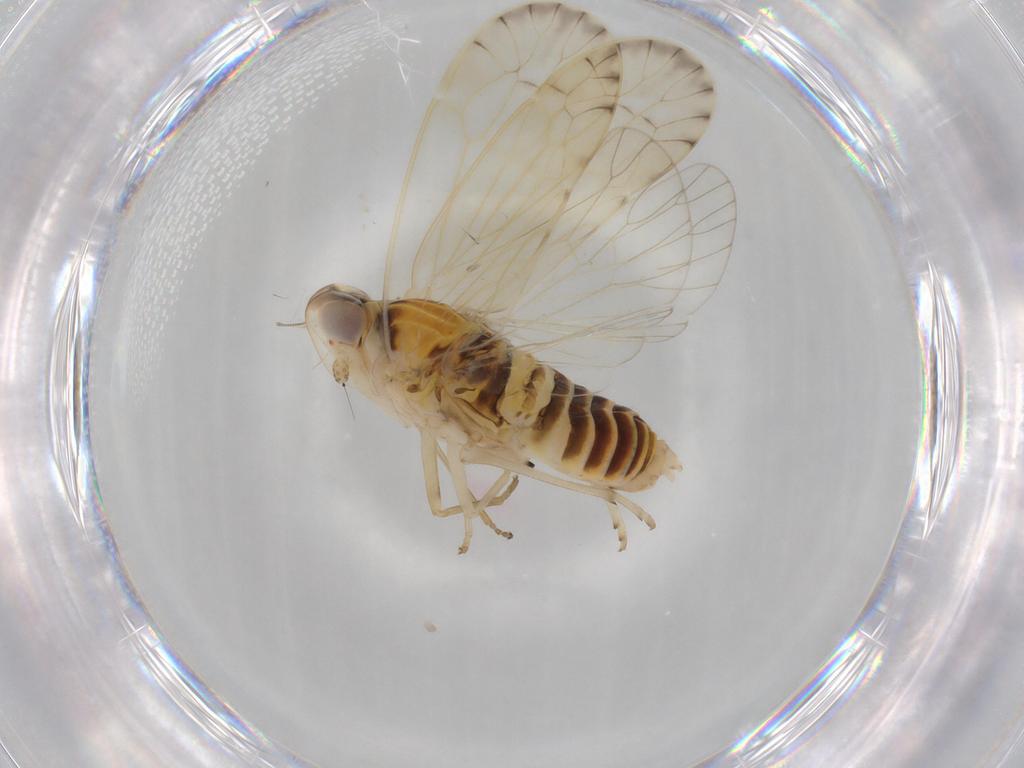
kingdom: Animalia
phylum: Arthropoda
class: Insecta
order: Hemiptera
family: Aleyrodidae
